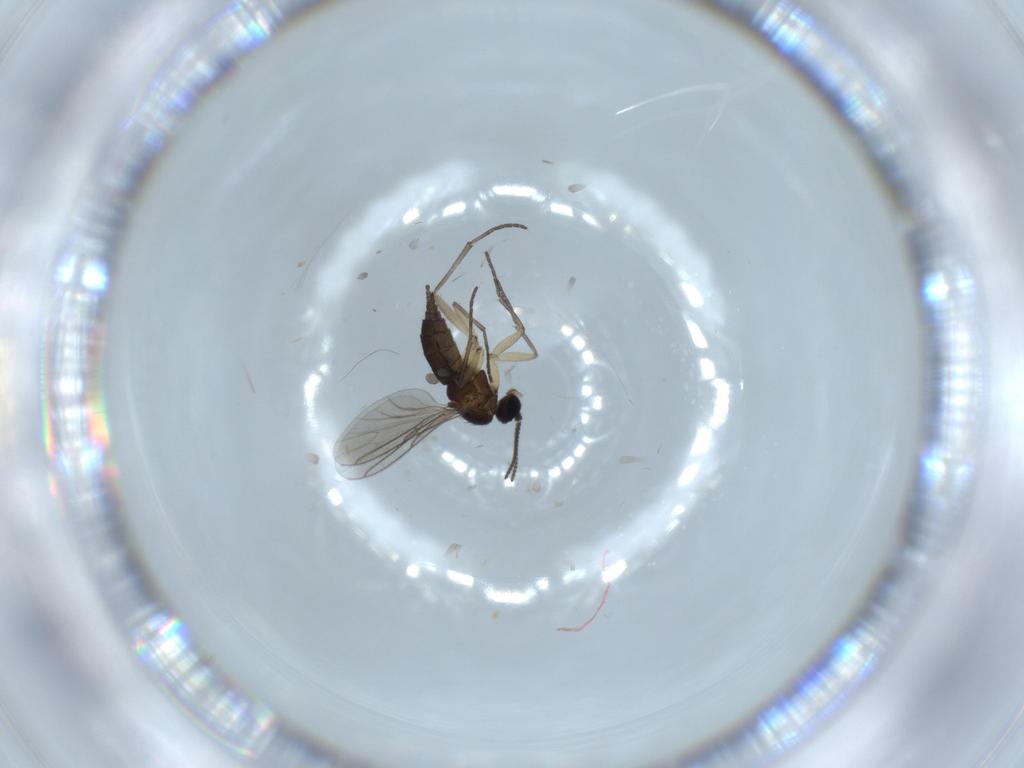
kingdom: Animalia
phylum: Arthropoda
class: Insecta
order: Diptera
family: Sciaridae
